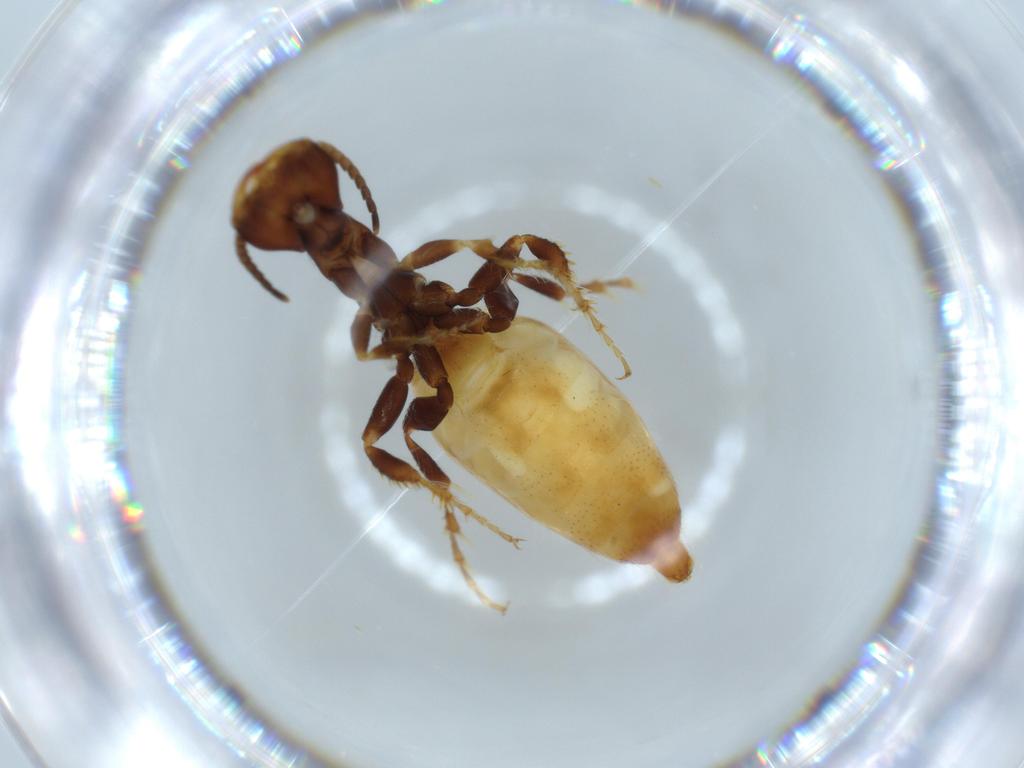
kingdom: Animalia
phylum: Arthropoda
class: Insecta
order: Hymenoptera
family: Thynnidae
